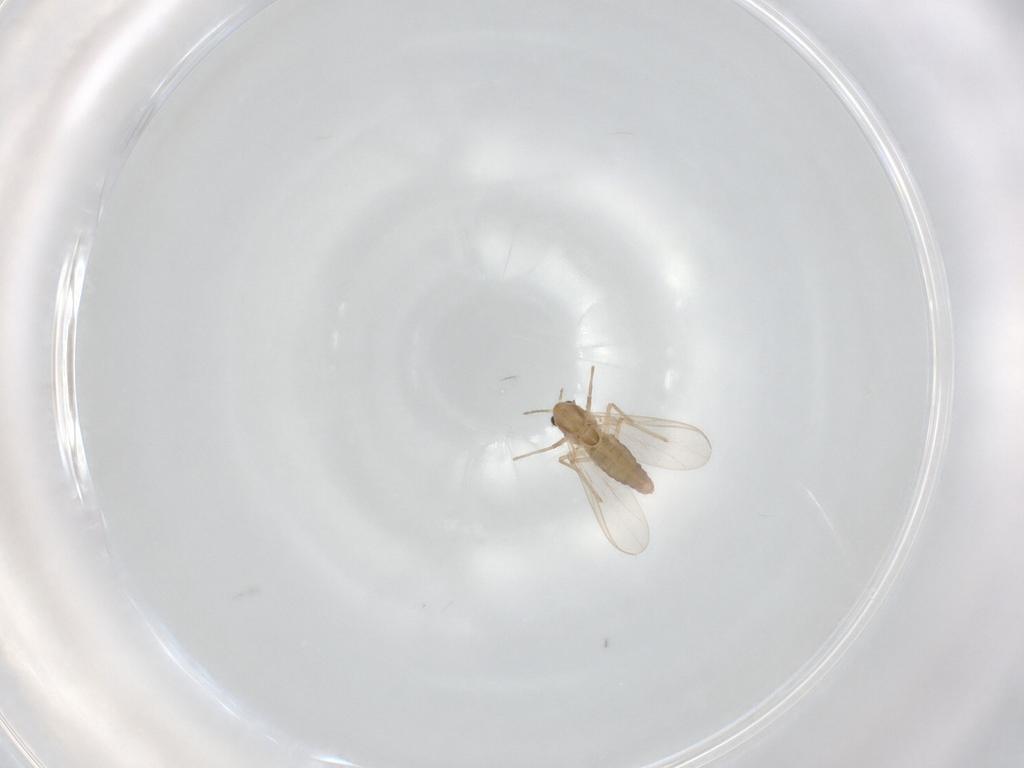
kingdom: Animalia
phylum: Arthropoda
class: Insecta
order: Diptera
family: Chironomidae
